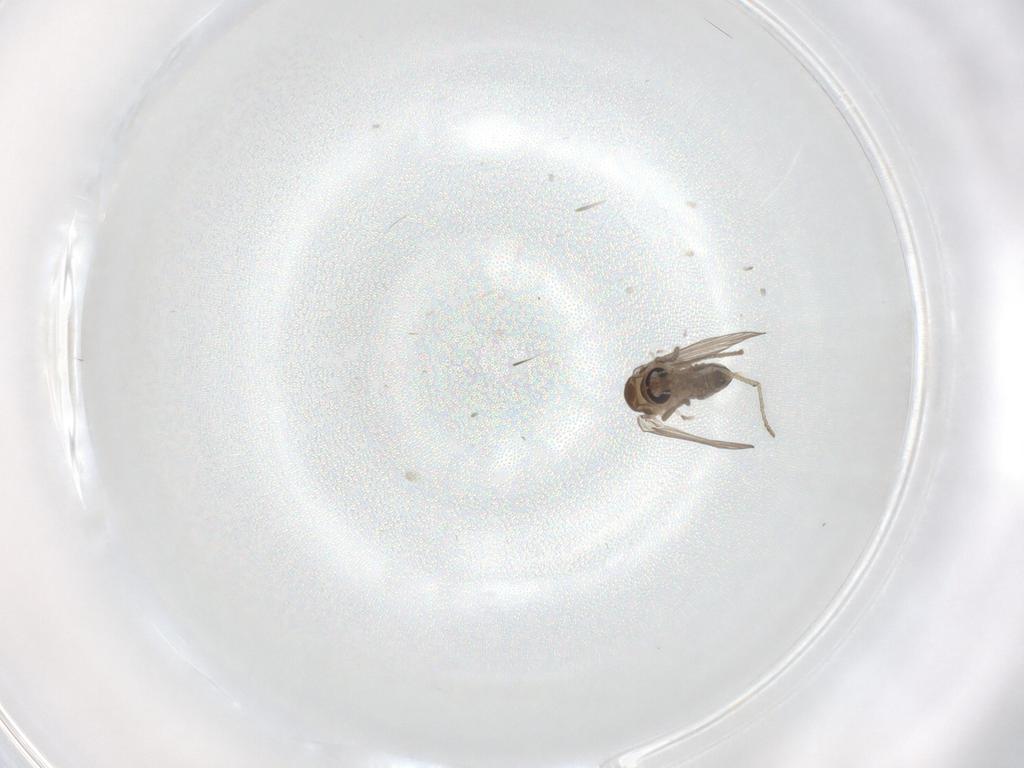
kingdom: Animalia
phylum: Arthropoda
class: Insecta
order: Diptera
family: Psychodidae
